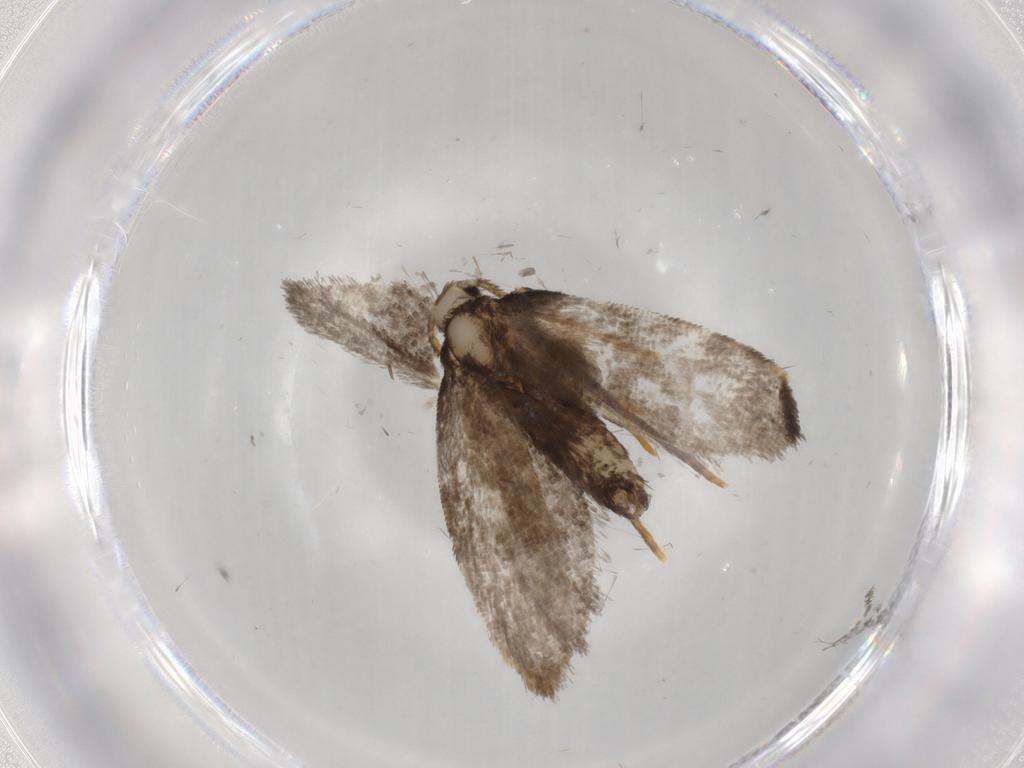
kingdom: Animalia
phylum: Arthropoda
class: Insecta
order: Lepidoptera
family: Psychidae
